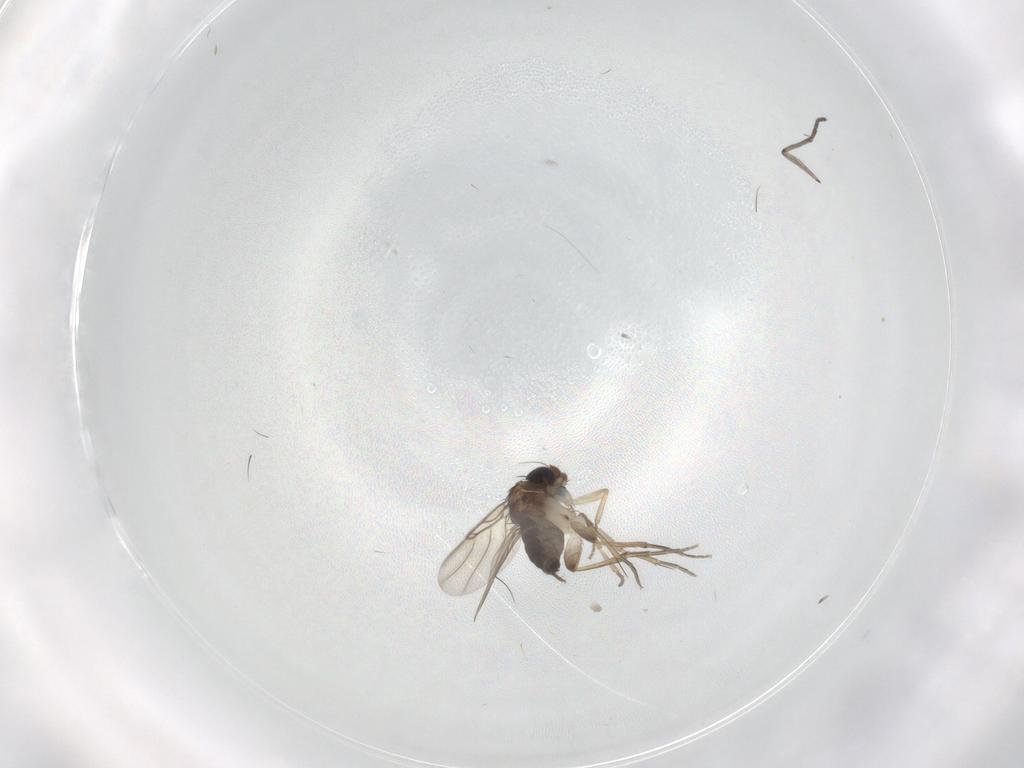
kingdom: Animalia
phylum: Arthropoda
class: Insecta
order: Diptera
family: Phoridae
